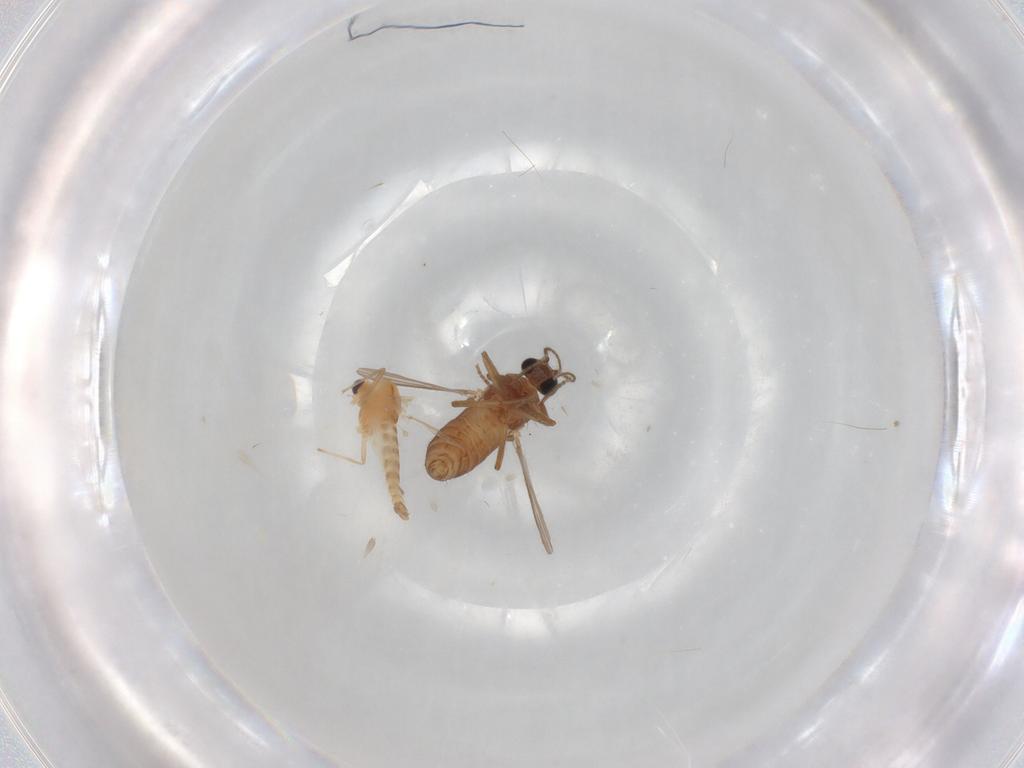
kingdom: Animalia
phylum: Arthropoda
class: Insecta
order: Diptera
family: Chironomidae
